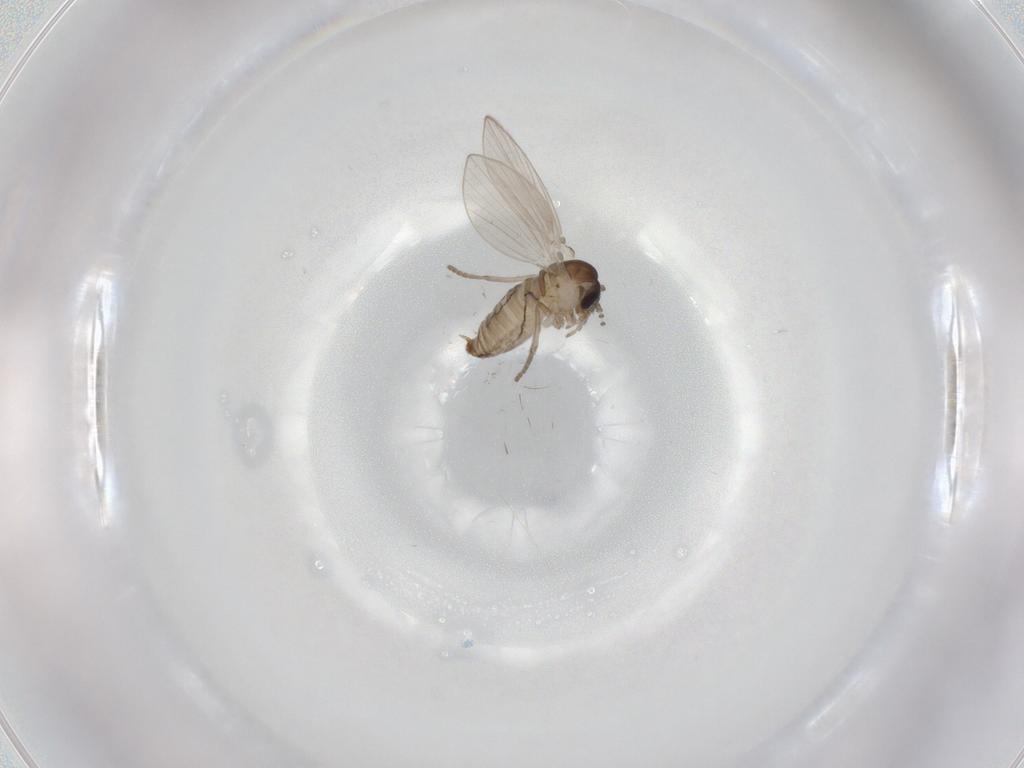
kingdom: Animalia
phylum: Arthropoda
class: Insecta
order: Diptera
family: Psychodidae
